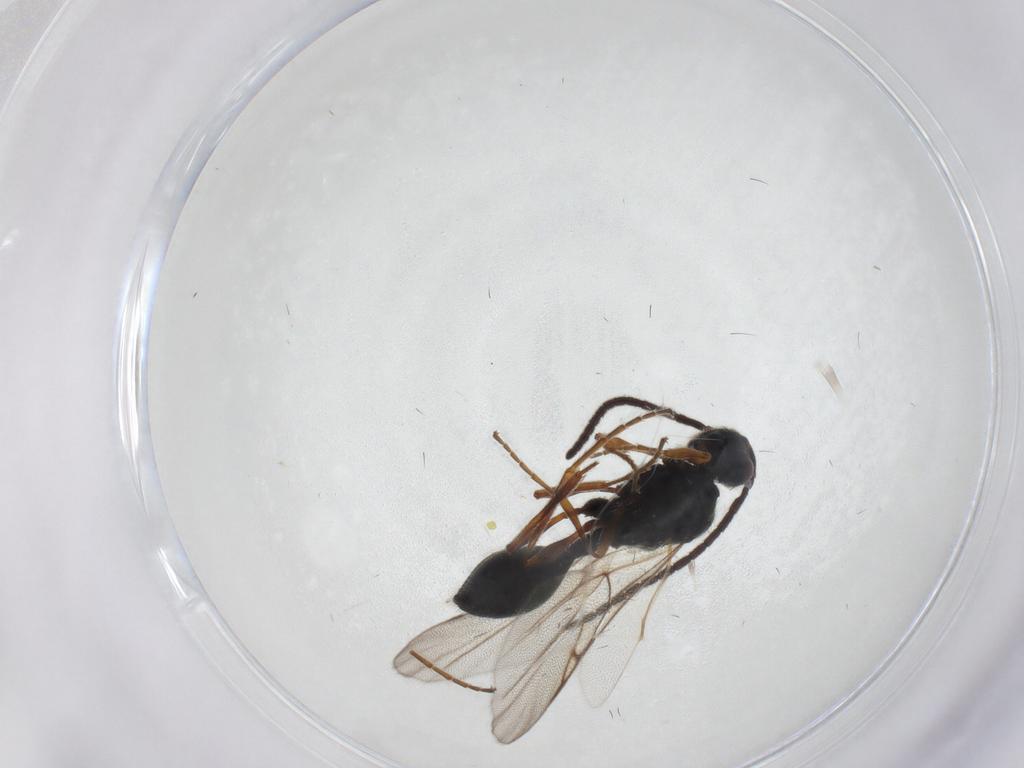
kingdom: Animalia
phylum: Arthropoda
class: Insecta
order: Hymenoptera
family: Diapriidae
